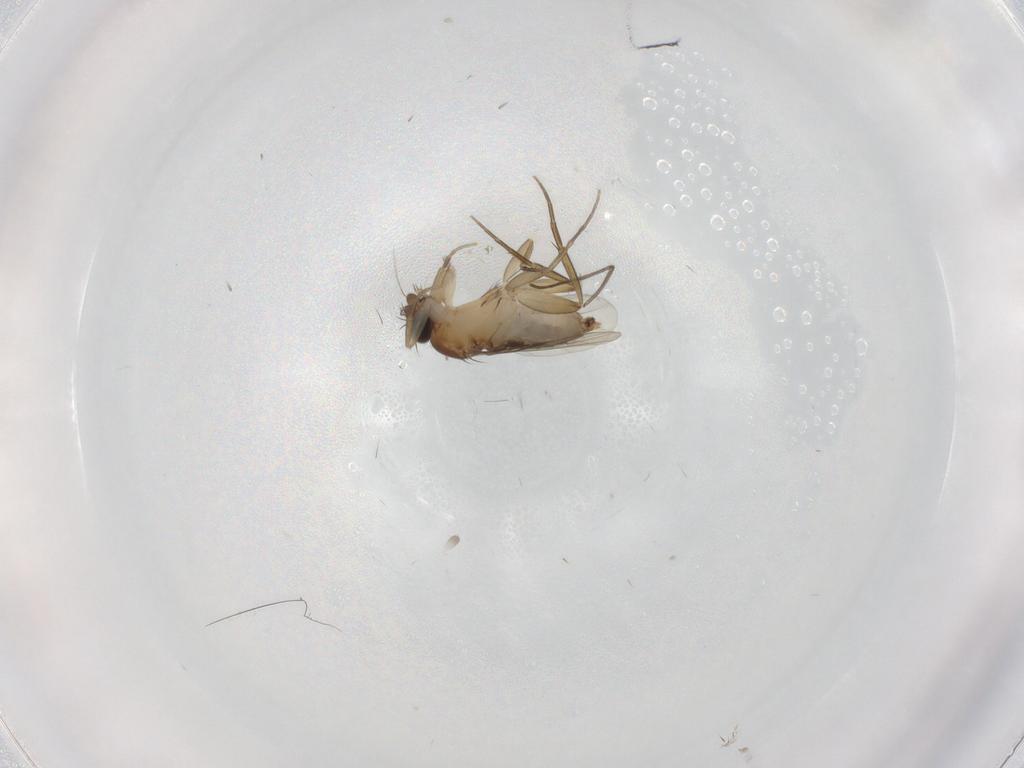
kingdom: Animalia
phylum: Arthropoda
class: Insecta
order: Diptera
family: Phoridae
